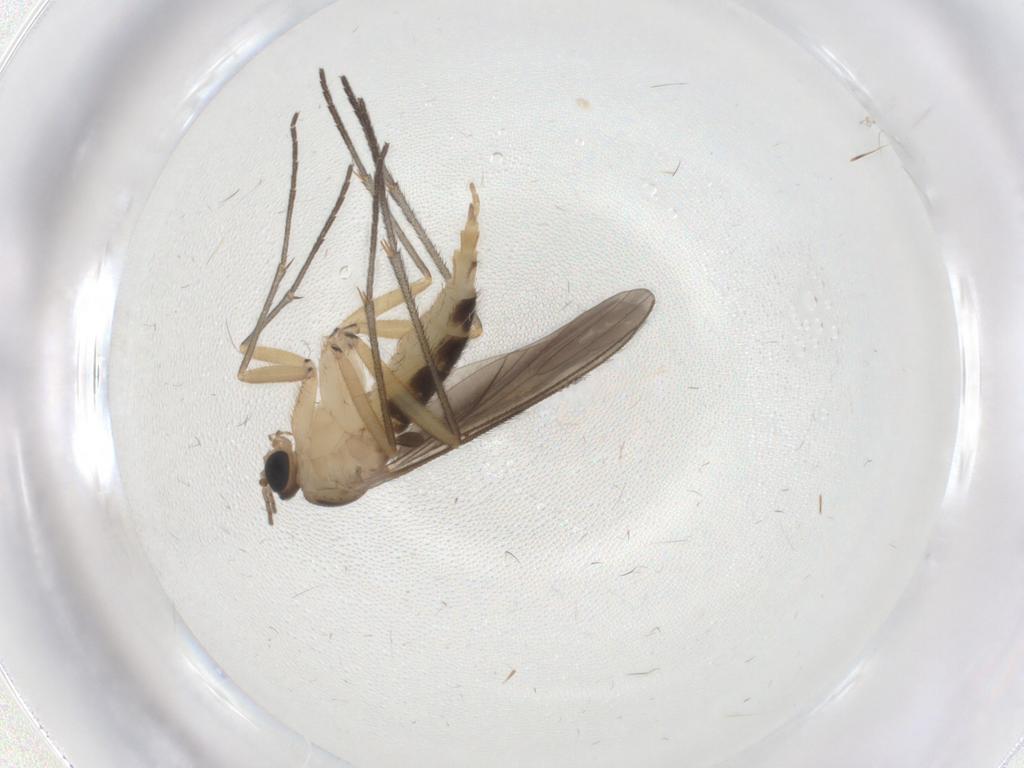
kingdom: Animalia
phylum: Arthropoda
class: Insecta
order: Diptera
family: Sciaridae
